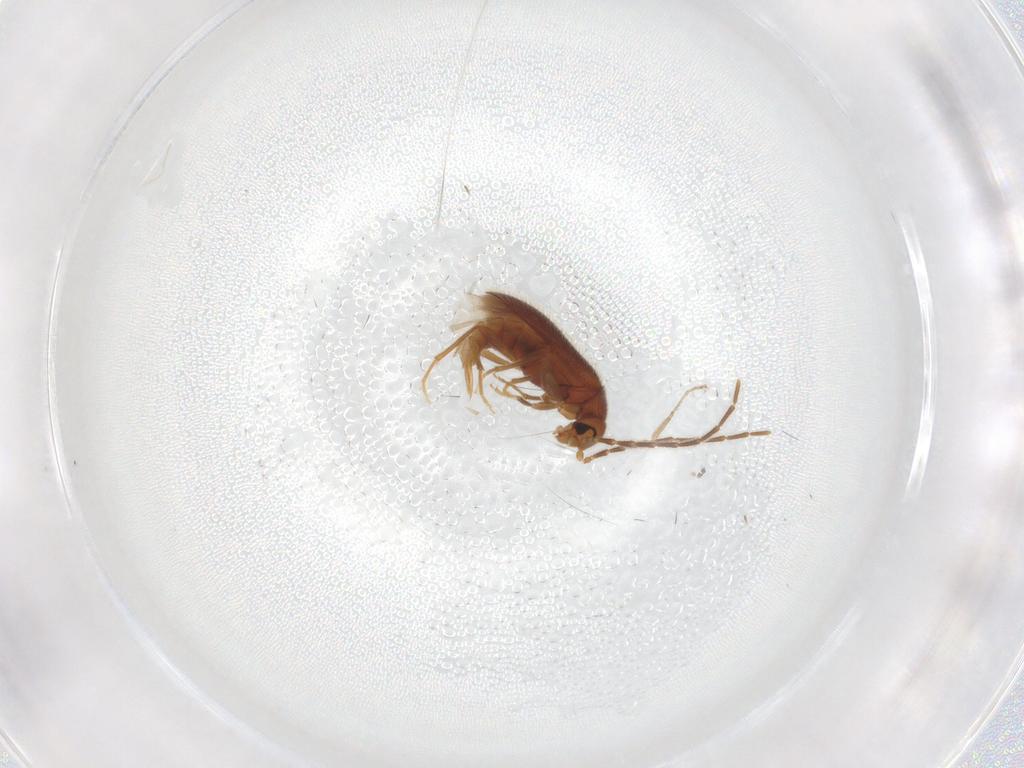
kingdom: Animalia
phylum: Arthropoda
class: Insecta
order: Coleoptera
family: Scraptiidae
